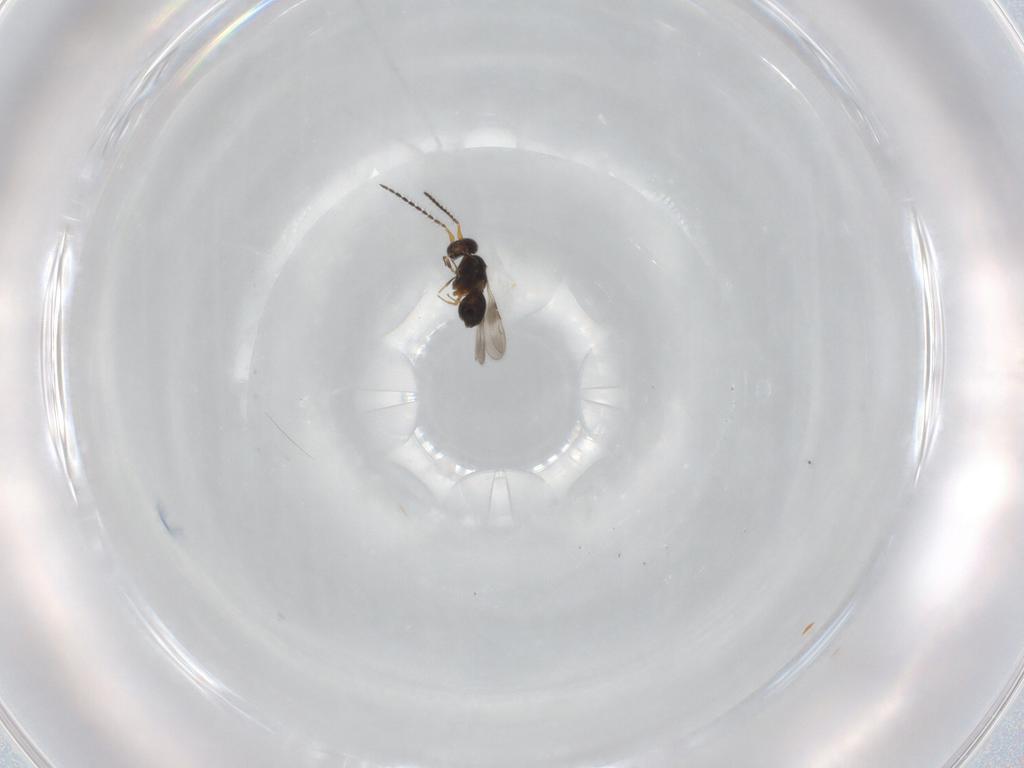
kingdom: Animalia
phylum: Arthropoda
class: Insecta
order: Hymenoptera
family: Ceraphronidae
